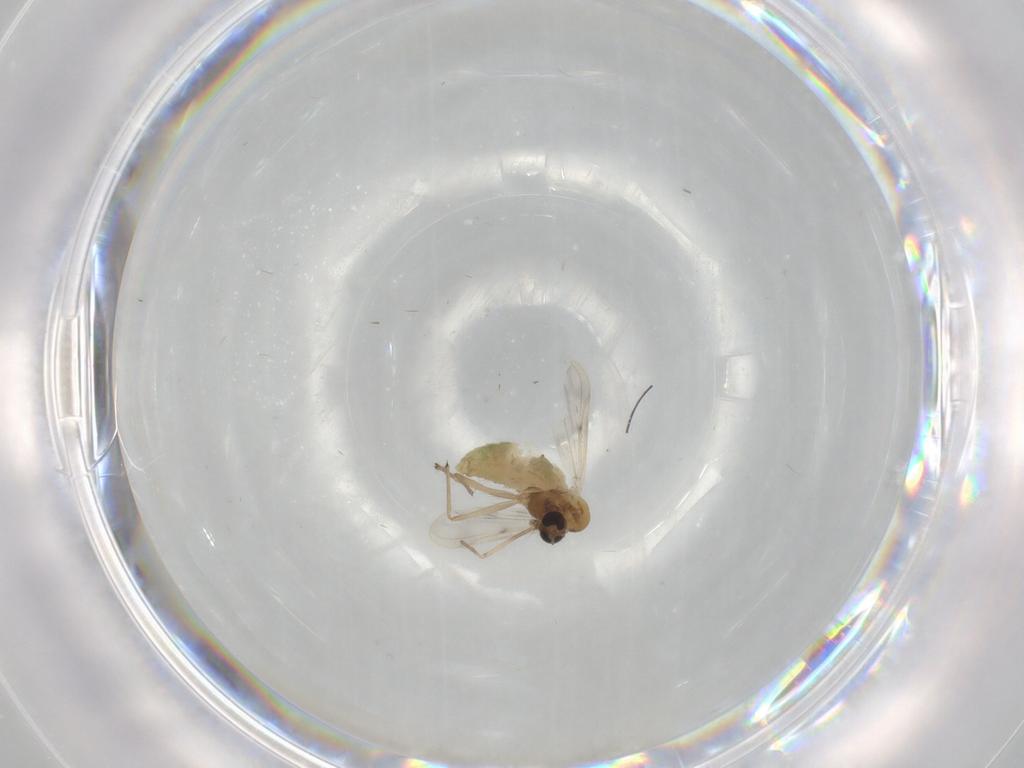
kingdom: Animalia
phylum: Arthropoda
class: Insecta
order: Diptera
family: Chironomidae
